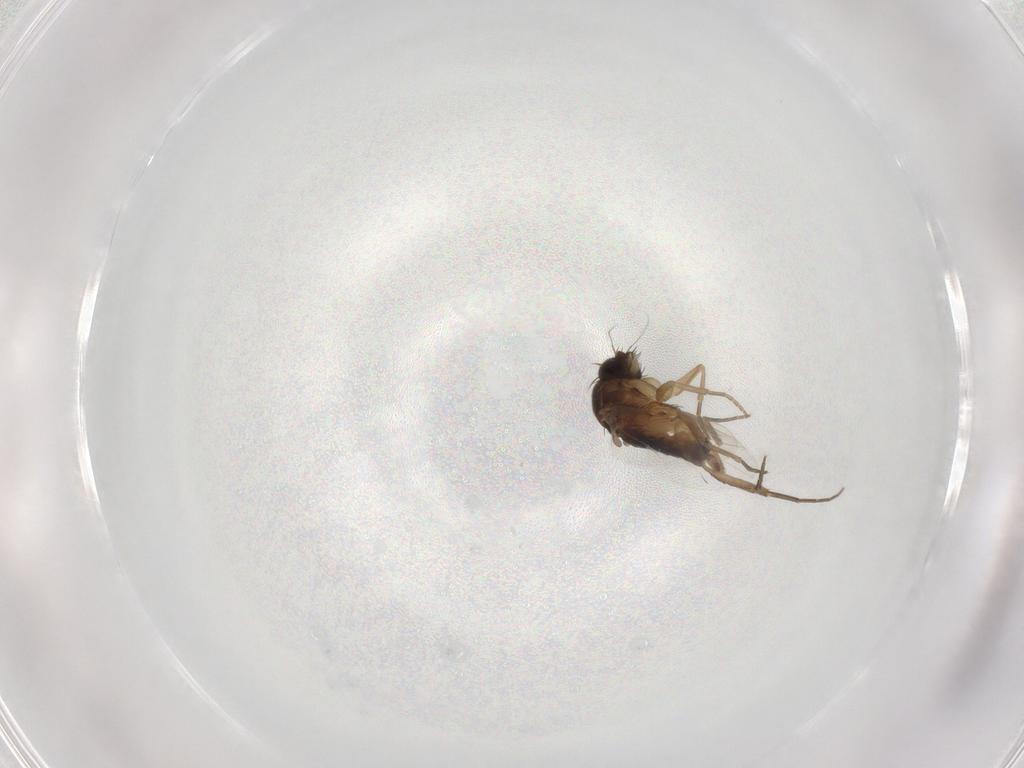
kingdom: Animalia
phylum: Arthropoda
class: Insecta
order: Diptera
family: Phoridae
